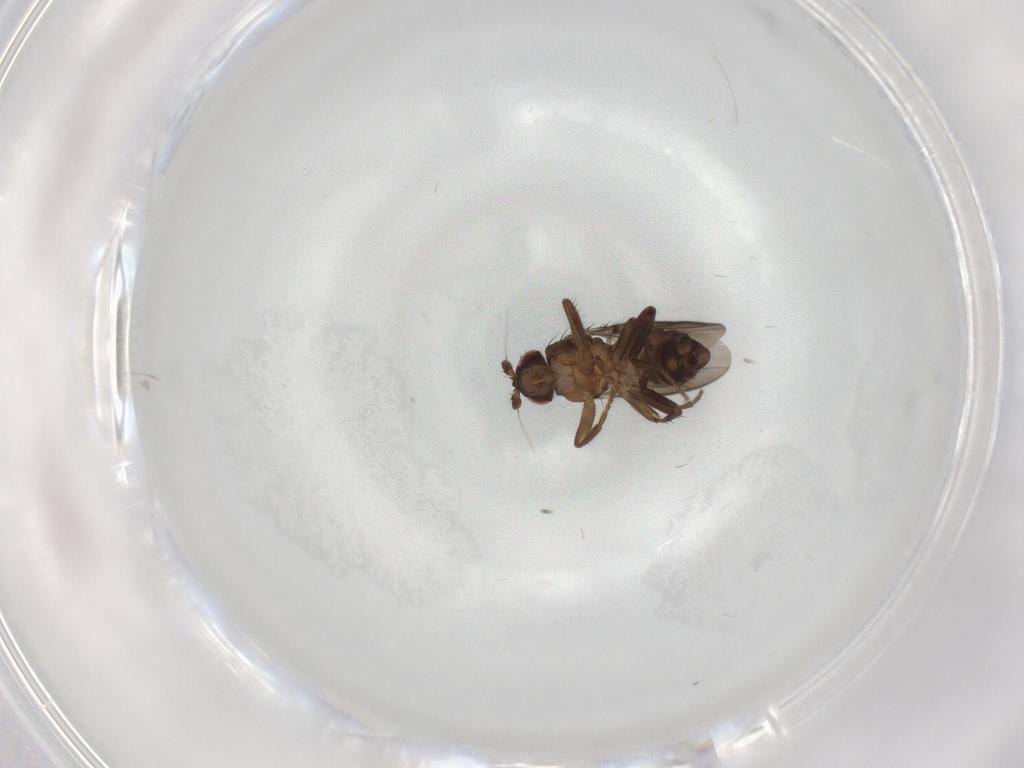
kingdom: Animalia
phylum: Arthropoda
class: Insecta
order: Diptera
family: Sphaeroceridae
